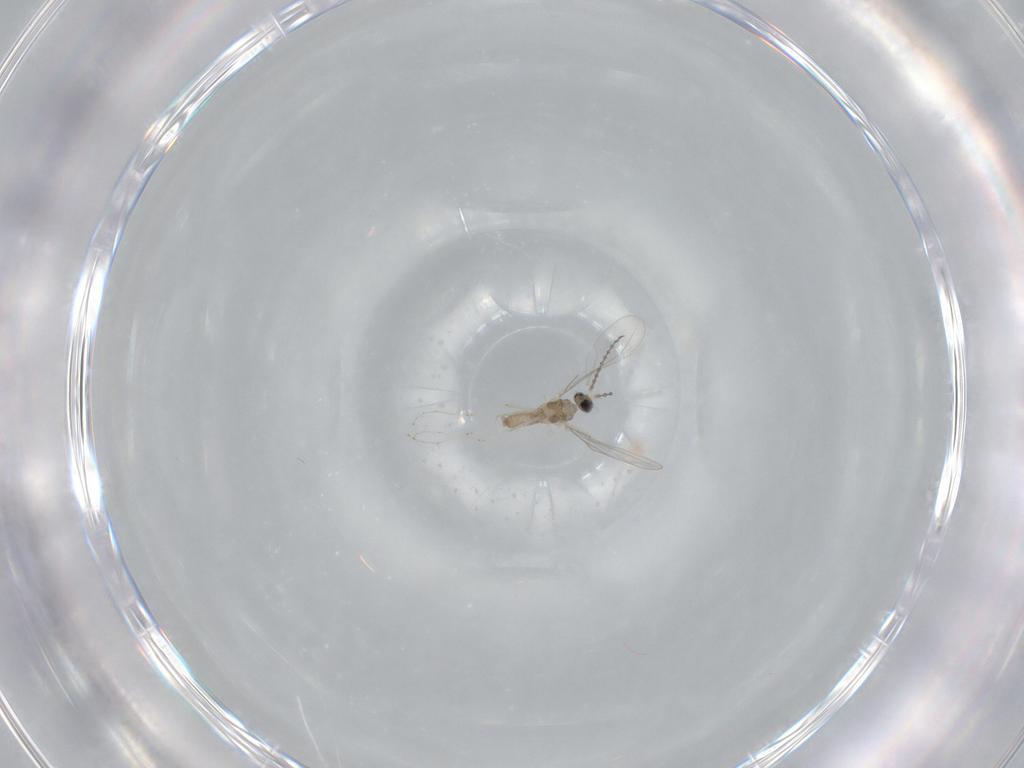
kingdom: Animalia
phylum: Arthropoda
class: Insecta
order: Diptera
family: Cecidomyiidae
